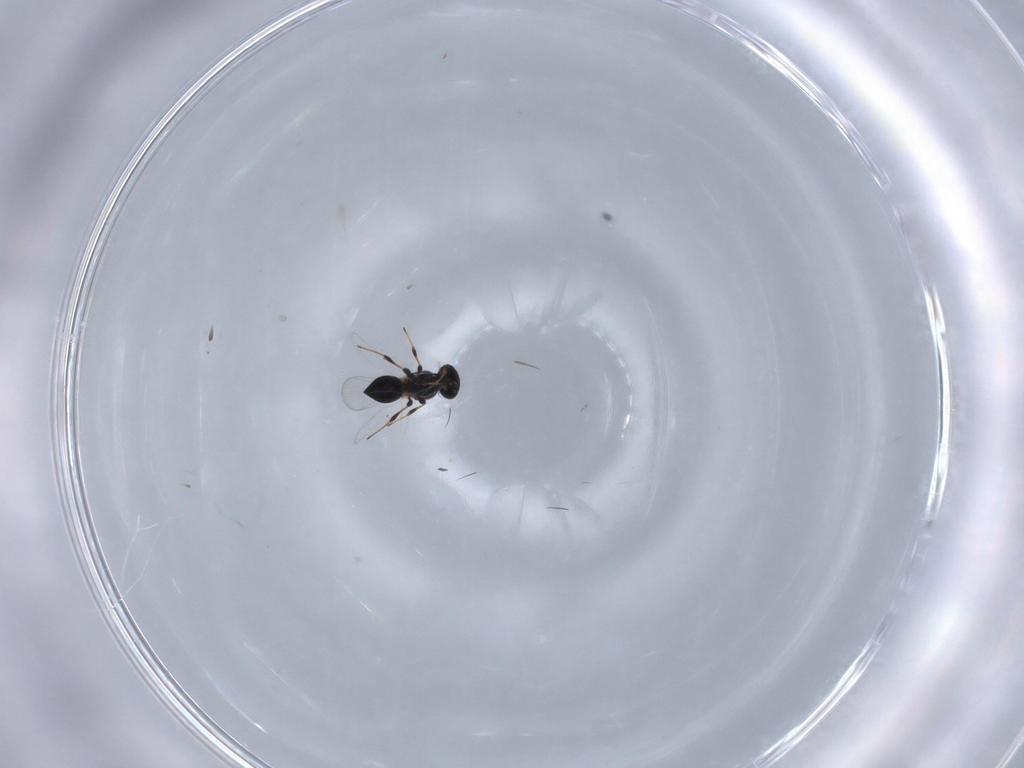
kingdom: Animalia
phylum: Arthropoda
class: Insecta
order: Hymenoptera
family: Platygastridae
